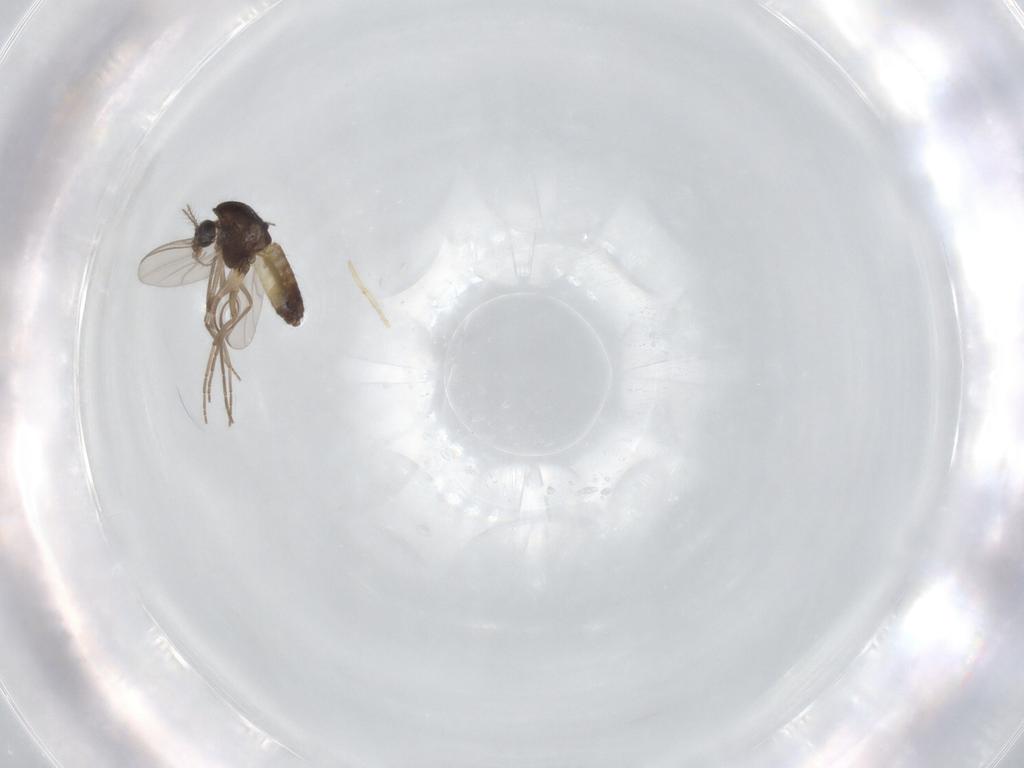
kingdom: Animalia
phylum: Arthropoda
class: Insecta
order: Diptera
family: Chironomidae
